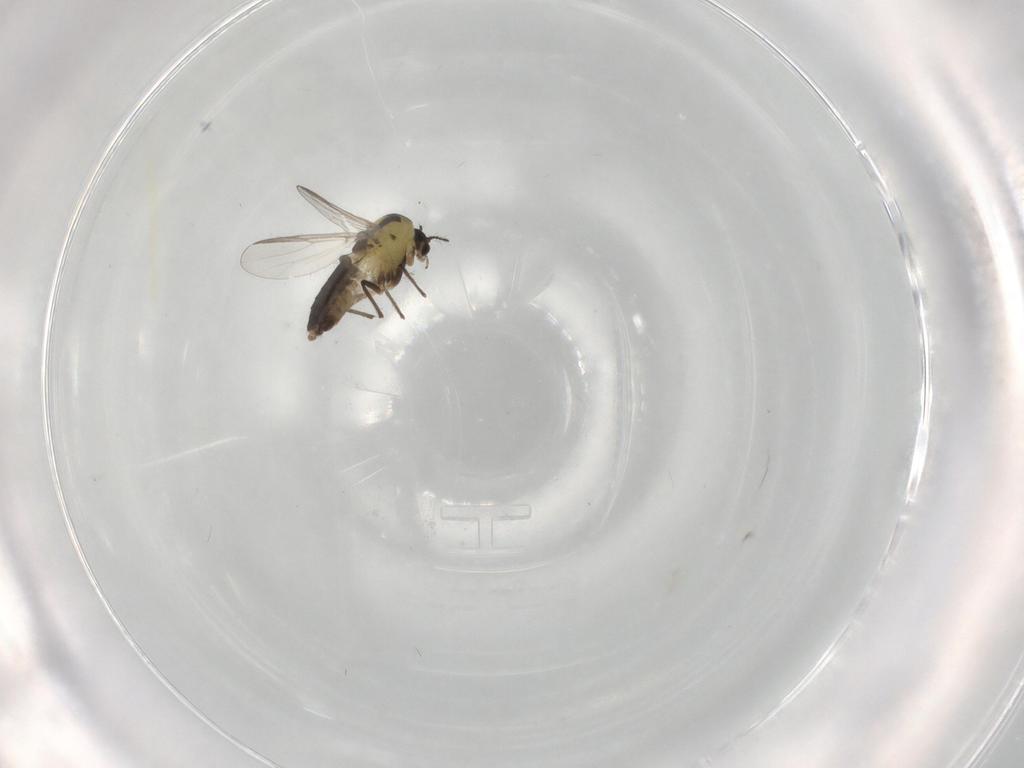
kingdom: Animalia
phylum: Arthropoda
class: Insecta
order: Diptera
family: Chironomidae
